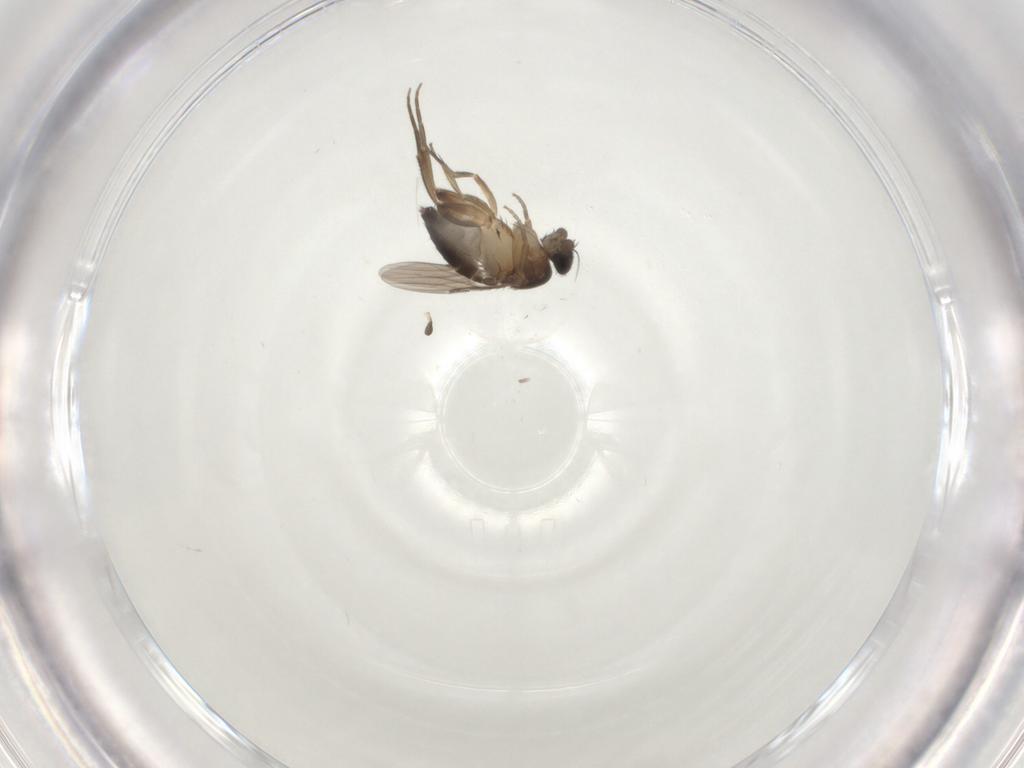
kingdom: Animalia
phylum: Arthropoda
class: Insecta
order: Diptera
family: Phoridae
